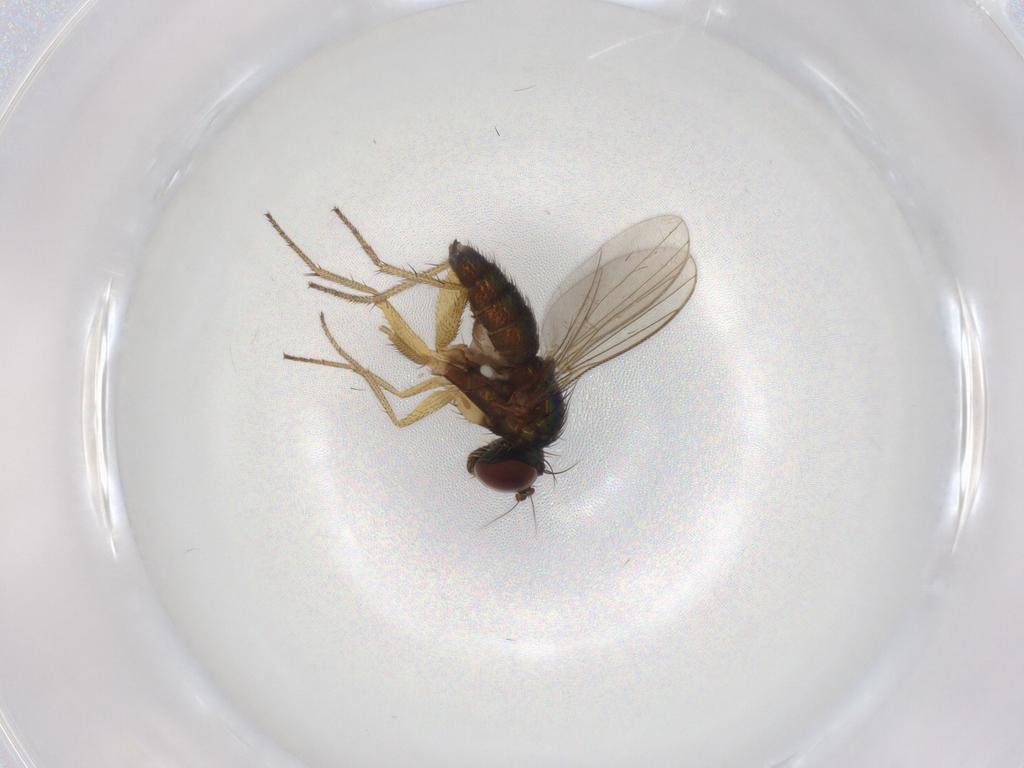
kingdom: Animalia
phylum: Arthropoda
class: Insecta
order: Diptera
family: Dolichopodidae
